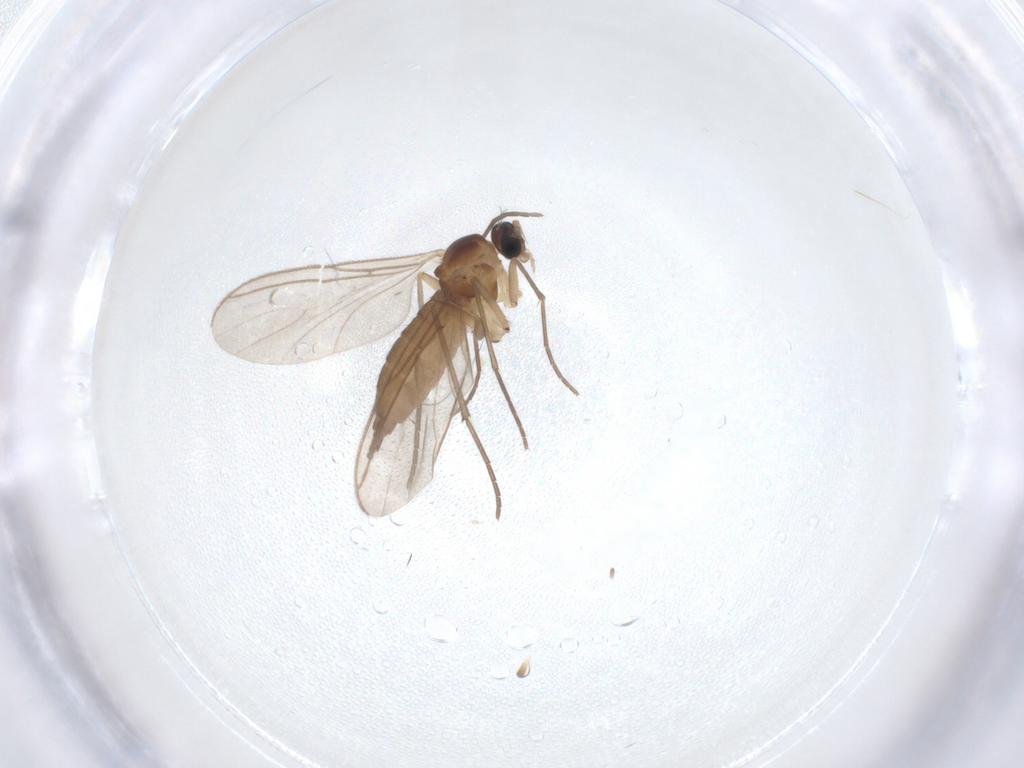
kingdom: Animalia
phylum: Arthropoda
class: Insecta
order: Diptera
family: Sciaridae
